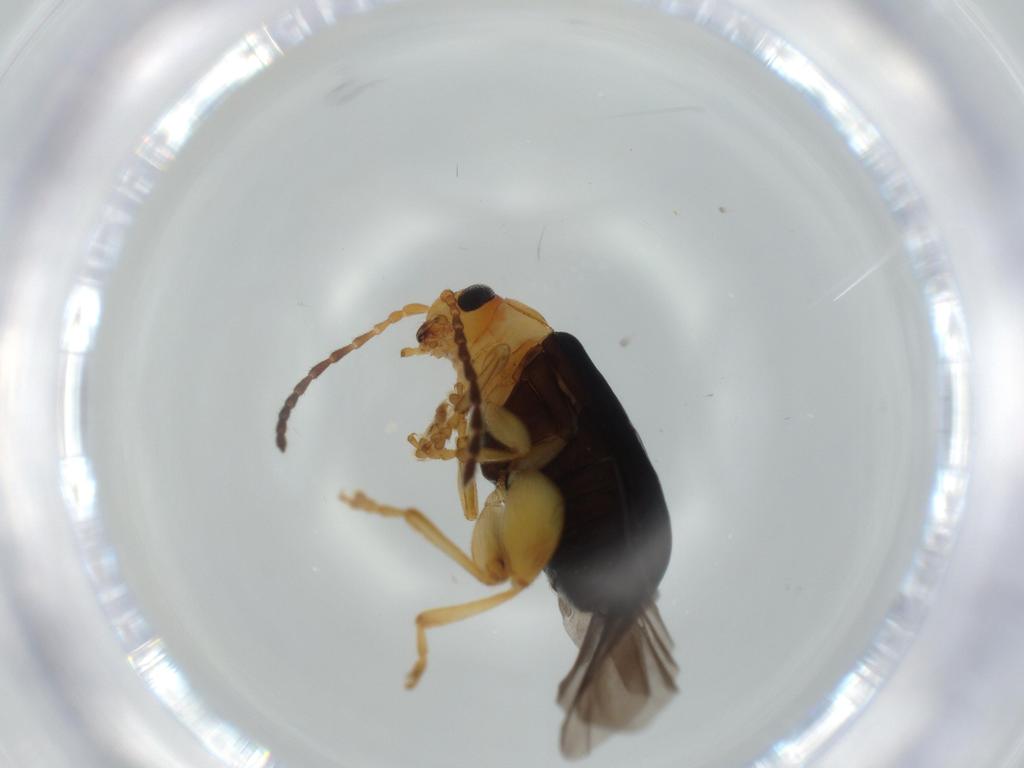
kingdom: Animalia
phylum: Arthropoda
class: Insecta
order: Coleoptera
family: Chrysomelidae
